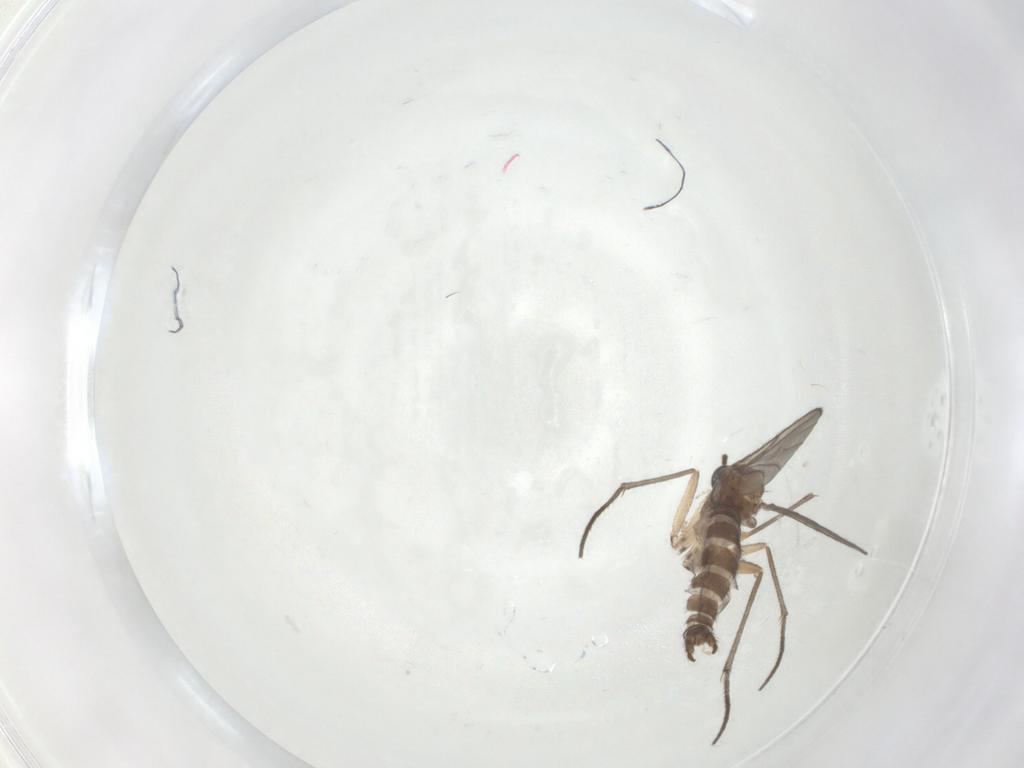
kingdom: Animalia
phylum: Arthropoda
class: Insecta
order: Diptera
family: Sciaridae
